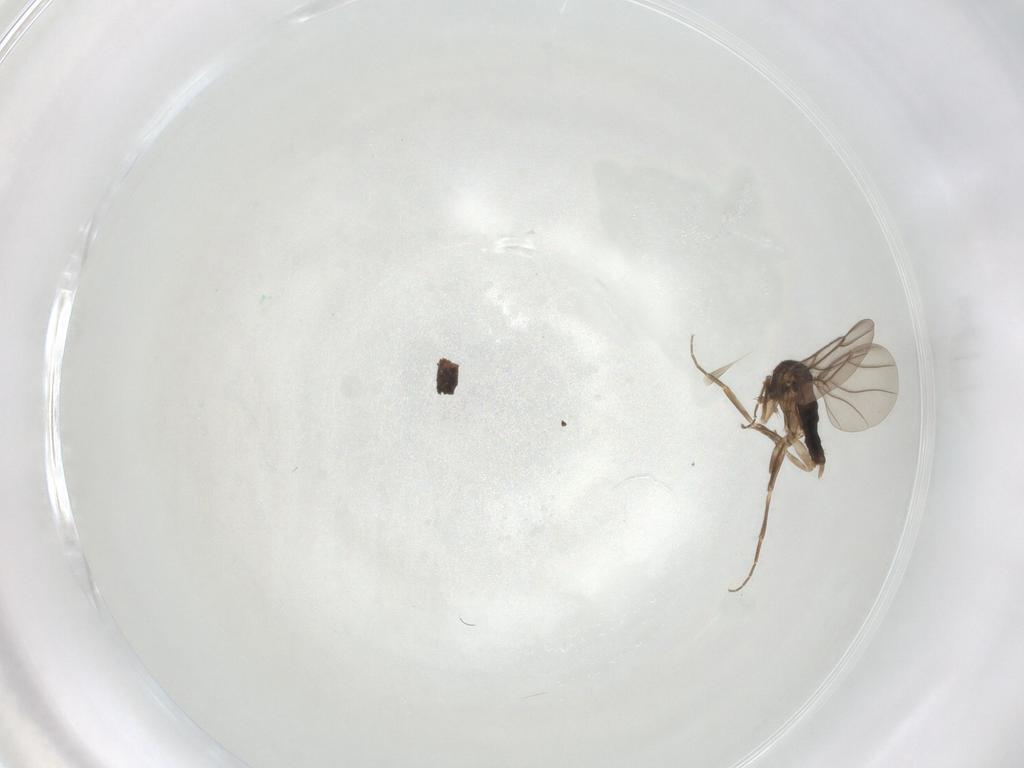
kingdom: Animalia
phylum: Arthropoda
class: Insecta
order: Diptera
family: Phoridae
